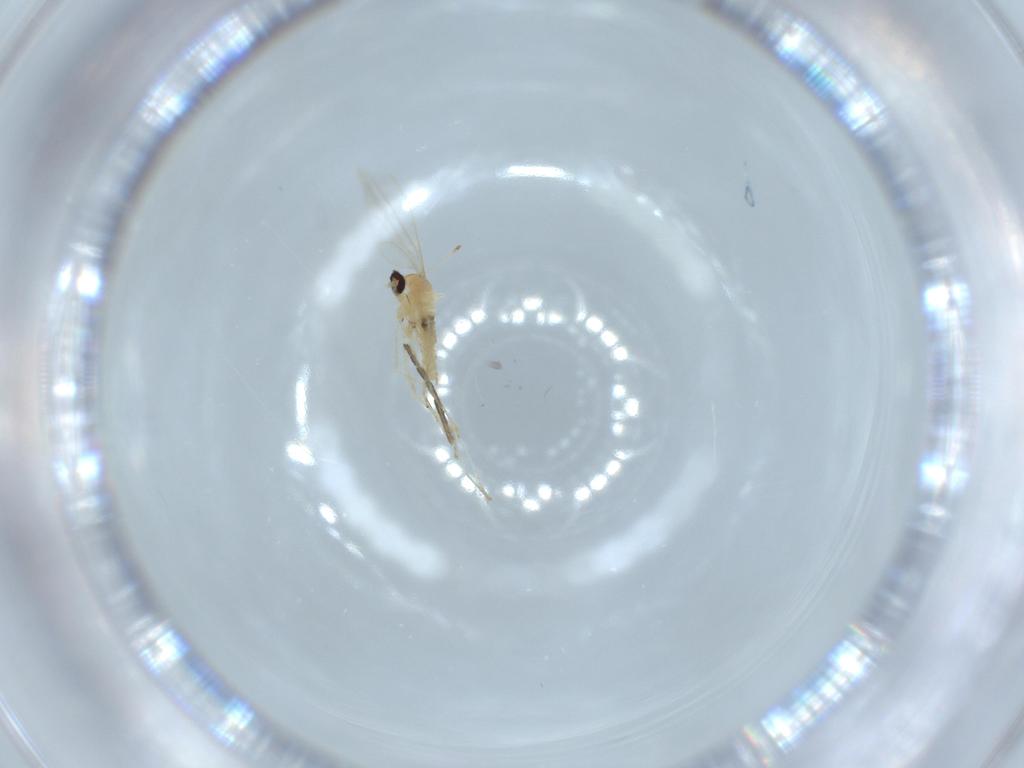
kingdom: Animalia
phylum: Arthropoda
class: Insecta
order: Diptera
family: Cecidomyiidae
